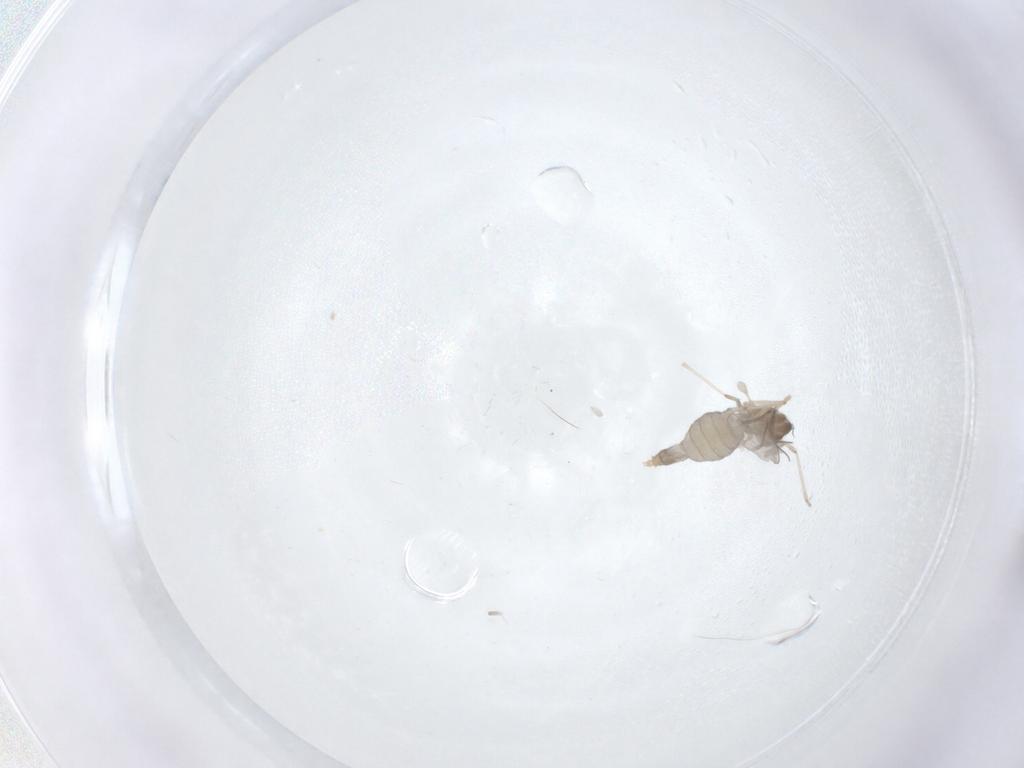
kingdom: Animalia
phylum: Arthropoda
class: Insecta
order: Diptera
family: Cecidomyiidae
